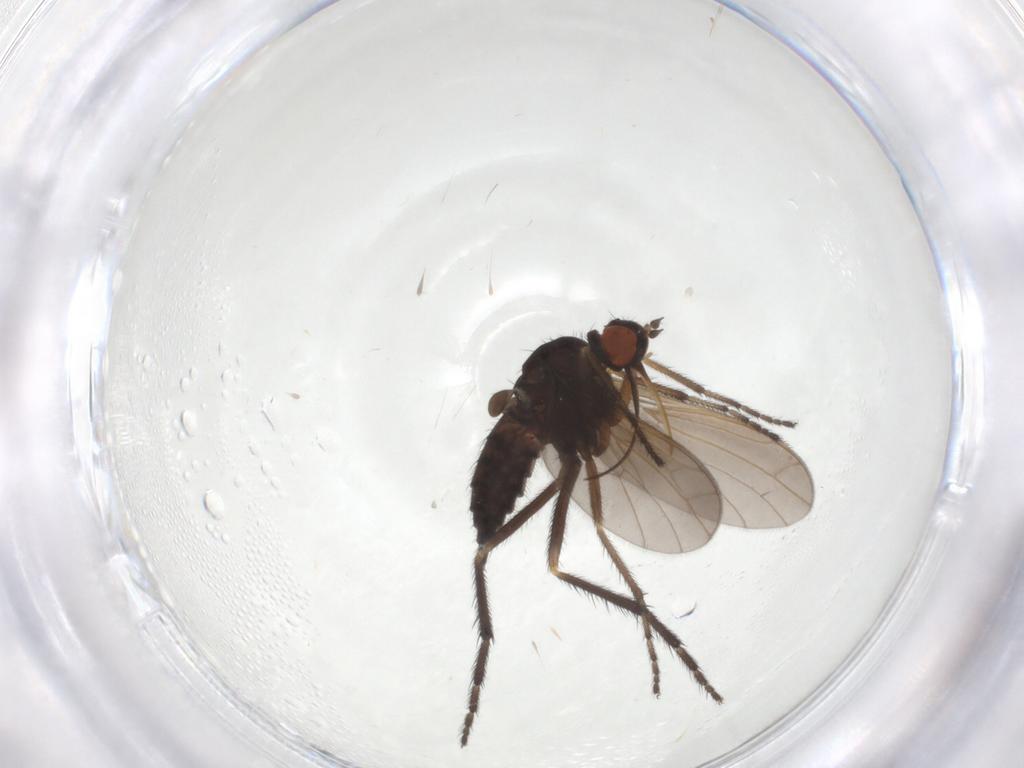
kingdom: Animalia
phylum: Arthropoda
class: Insecta
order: Diptera
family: Empididae
